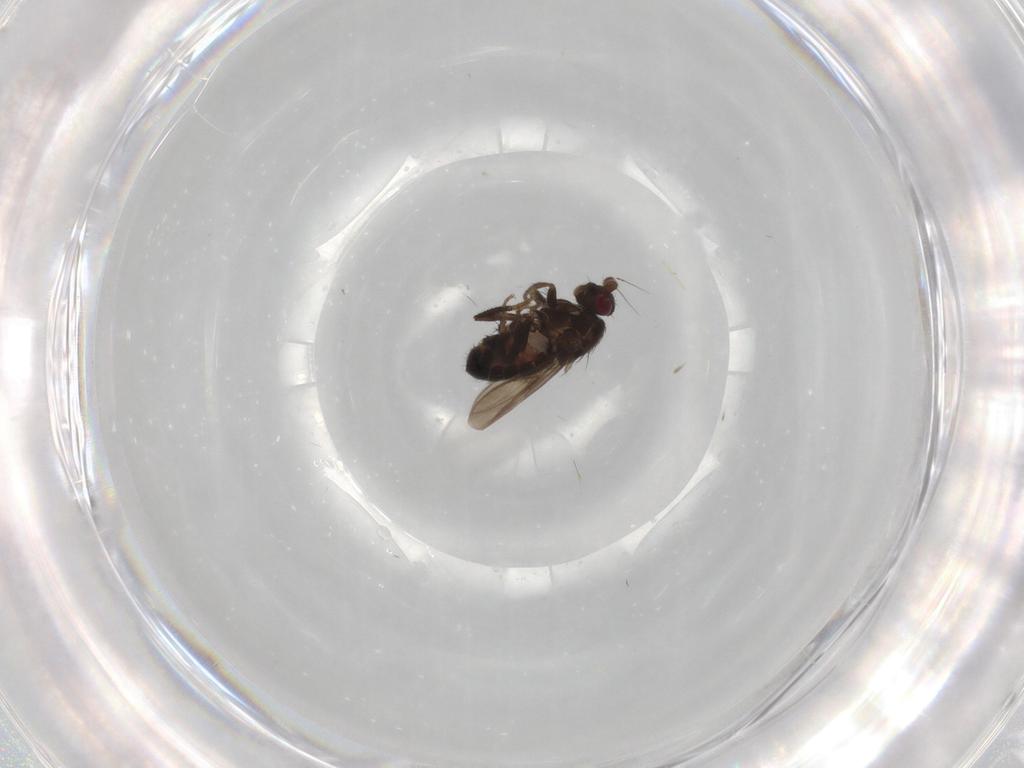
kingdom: Animalia
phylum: Arthropoda
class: Insecta
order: Diptera
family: Sphaeroceridae
